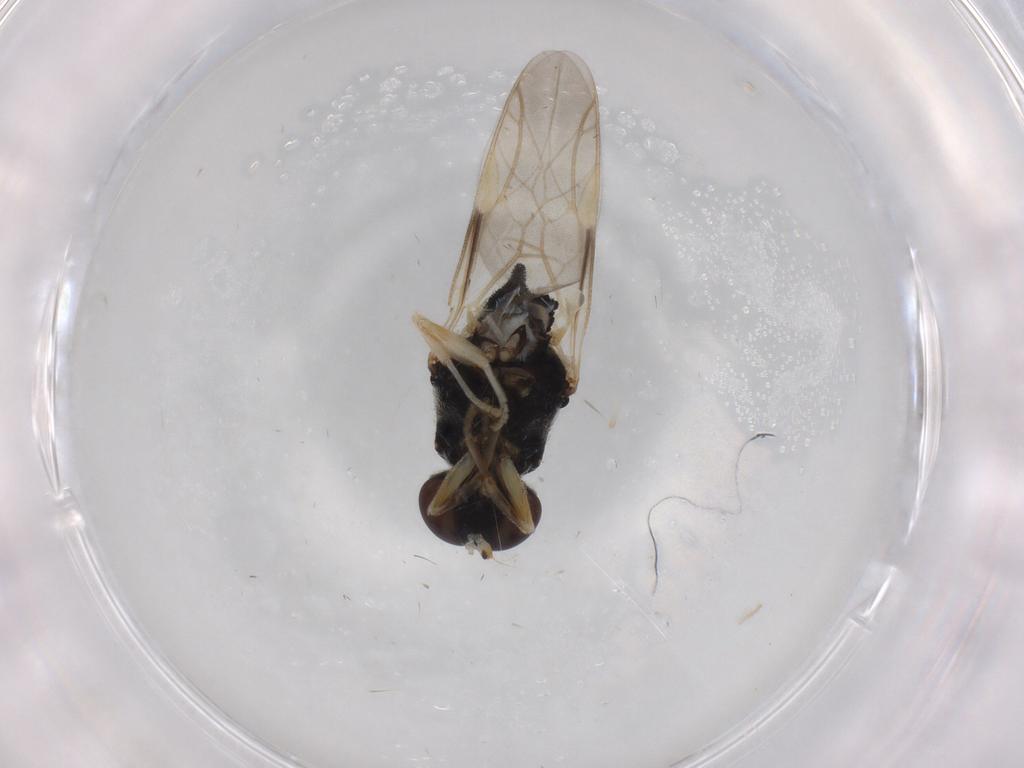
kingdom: Animalia
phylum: Arthropoda
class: Insecta
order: Diptera
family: Stratiomyidae
